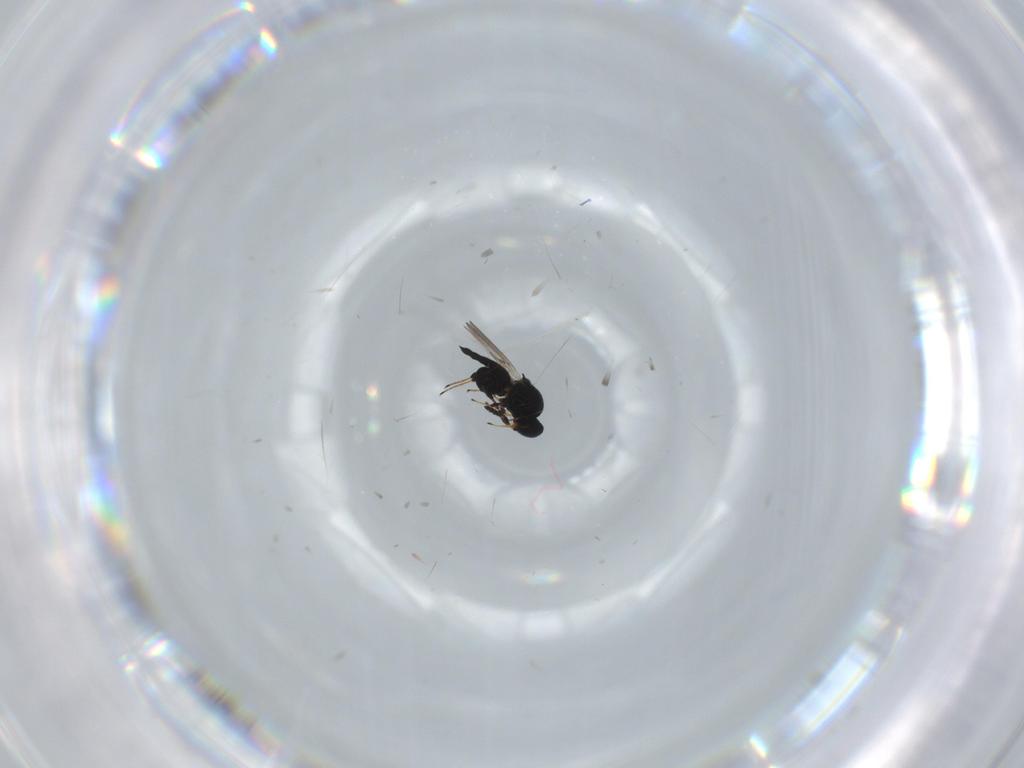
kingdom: Animalia
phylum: Arthropoda
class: Insecta
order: Hymenoptera
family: Platygastridae
